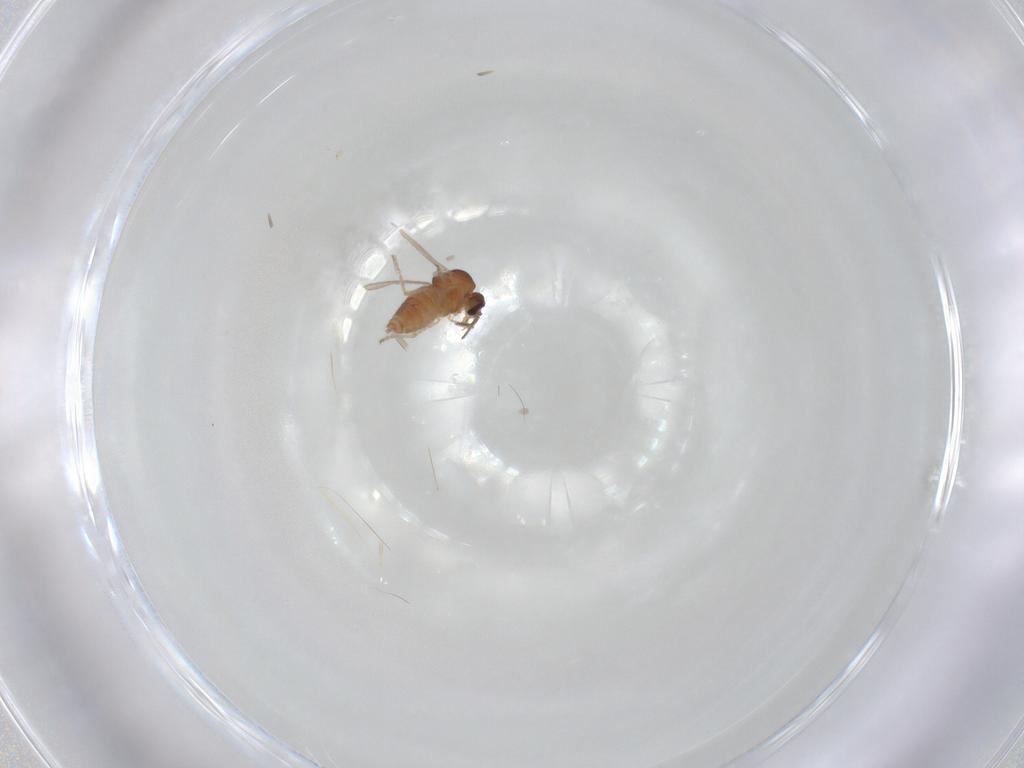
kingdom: Animalia
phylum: Arthropoda
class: Insecta
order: Diptera
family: Ceratopogonidae
